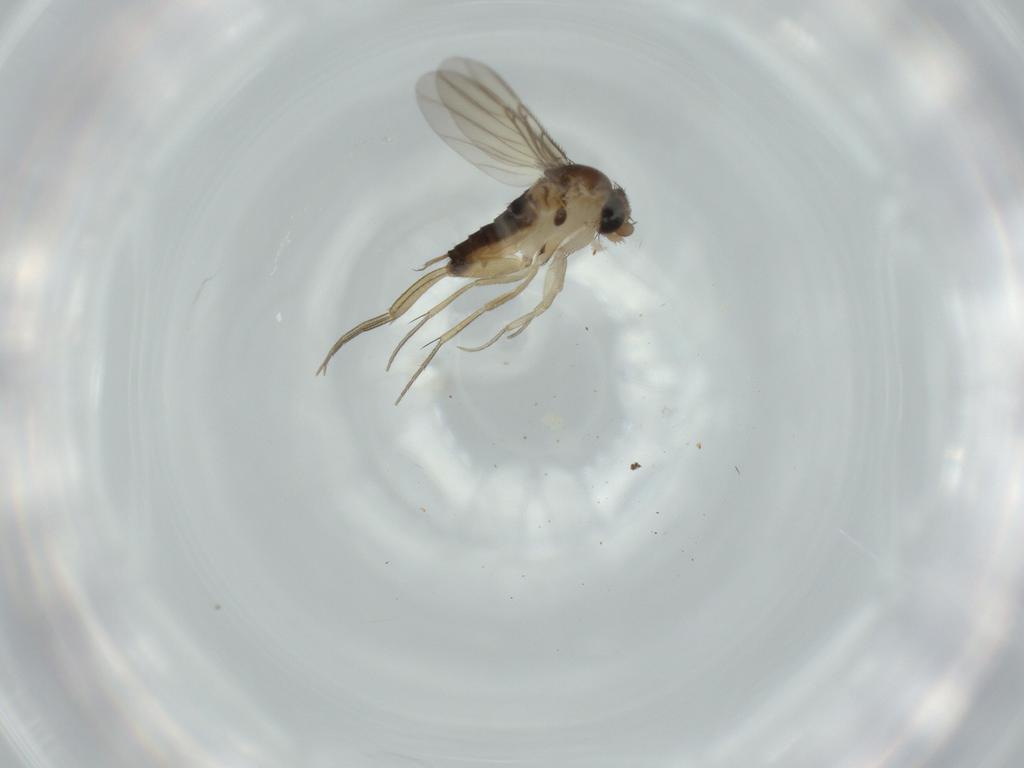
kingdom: Animalia
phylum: Arthropoda
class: Insecta
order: Diptera
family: Phoridae
